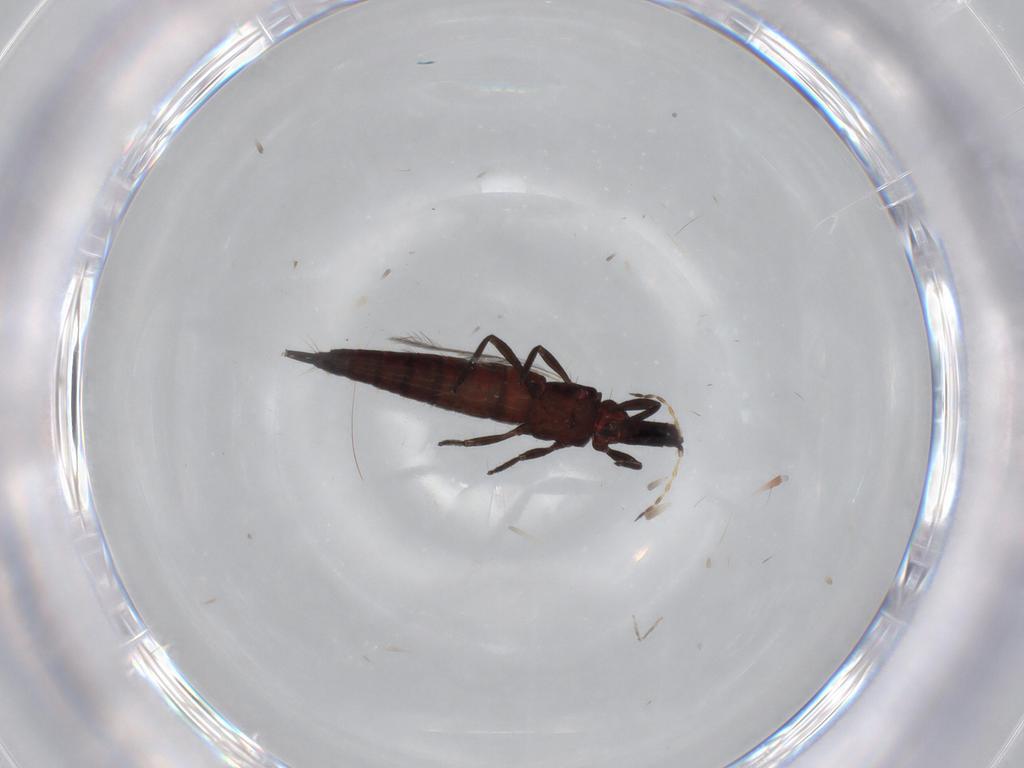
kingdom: Animalia
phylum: Arthropoda
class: Insecta
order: Thysanoptera
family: Phlaeothripidae
